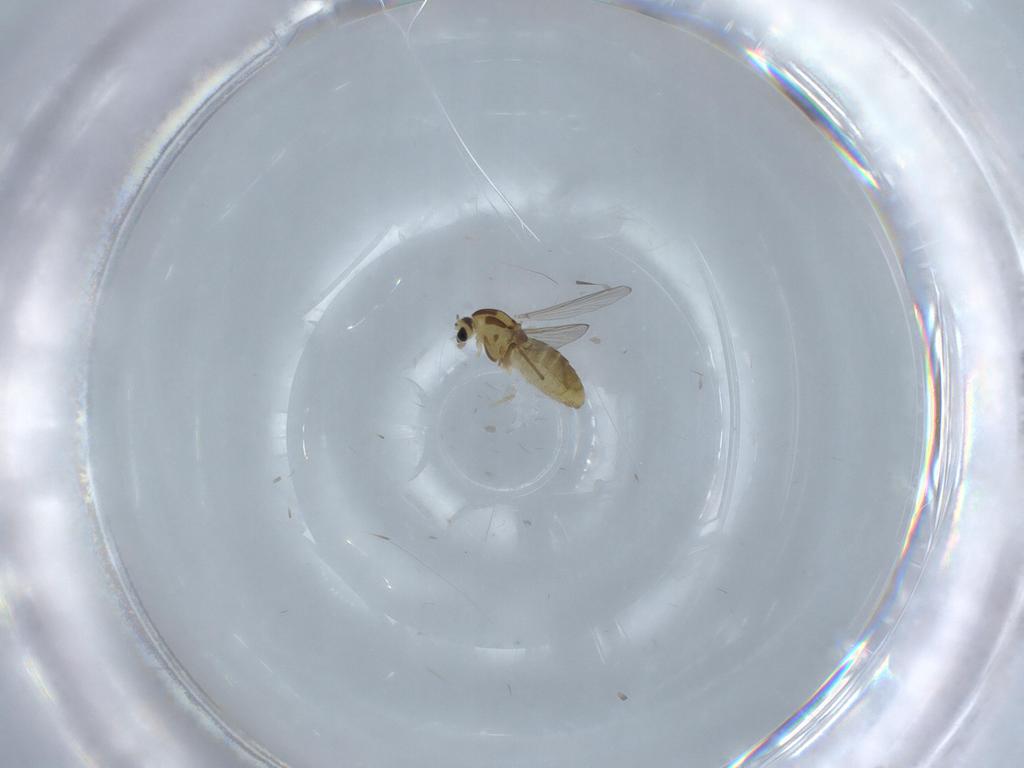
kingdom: Animalia
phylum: Arthropoda
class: Insecta
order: Diptera
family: Chironomidae
